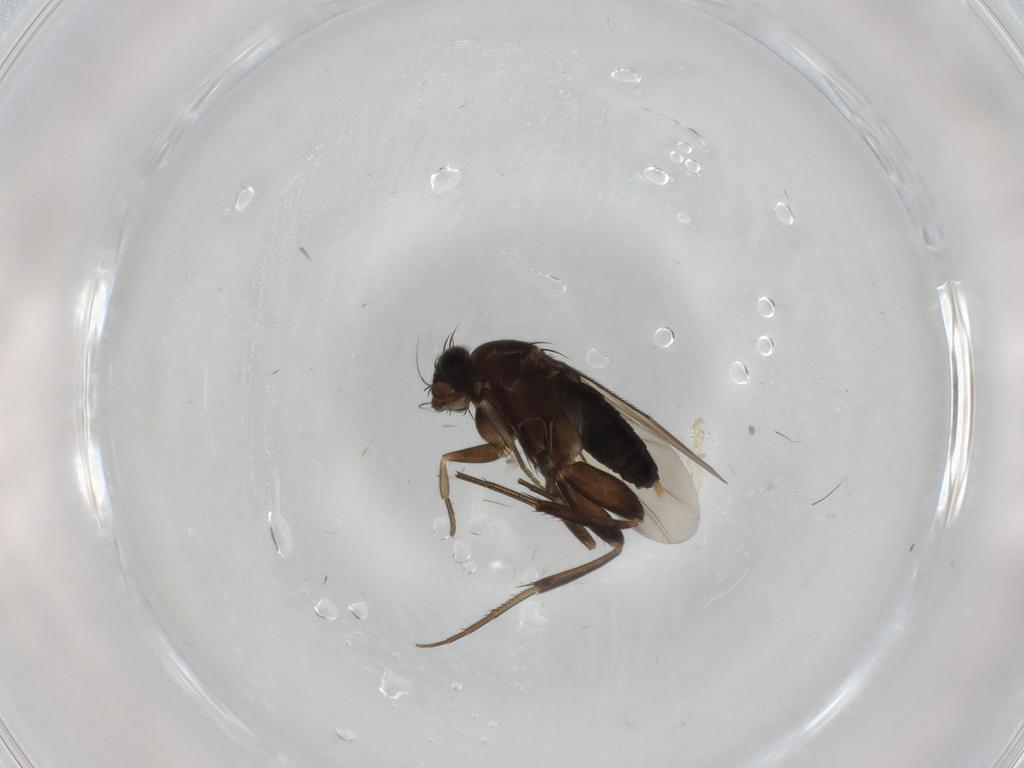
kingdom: Animalia
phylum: Arthropoda
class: Insecta
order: Diptera
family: Phoridae
